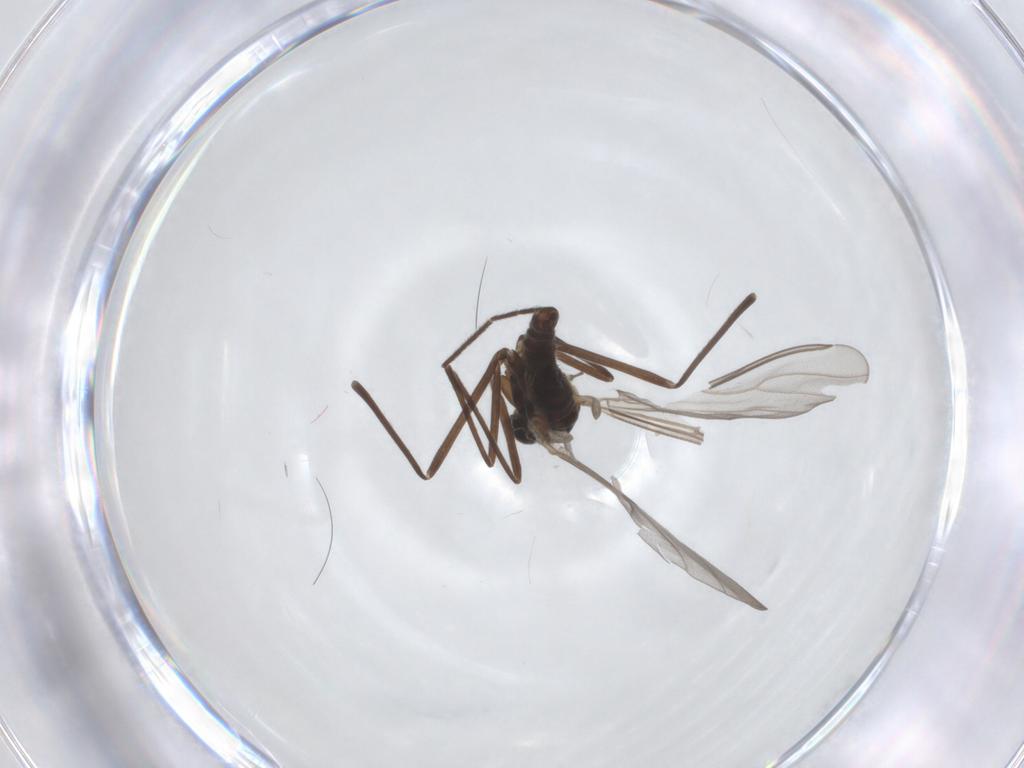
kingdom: Animalia
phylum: Arthropoda
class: Insecta
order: Diptera
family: Cecidomyiidae
